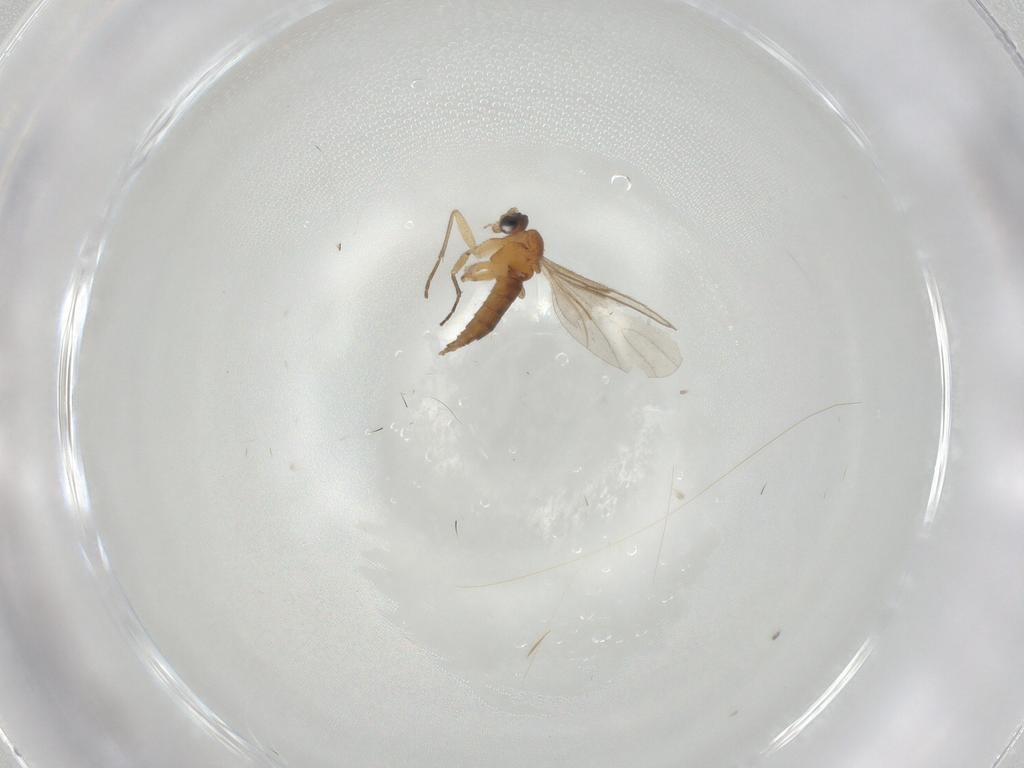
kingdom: Animalia
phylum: Arthropoda
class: Insecta
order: Diptera
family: Sciaridae
